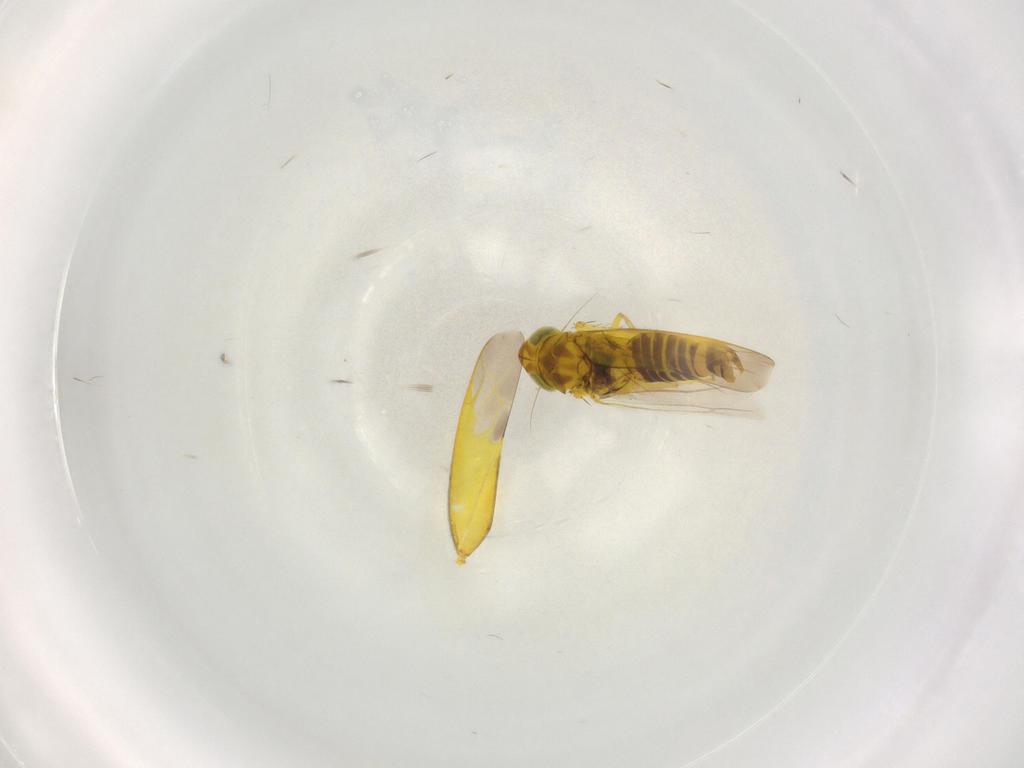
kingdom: Animalia
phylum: Arthropoda
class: Insecta
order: Hemiptera
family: Cicadellidae
